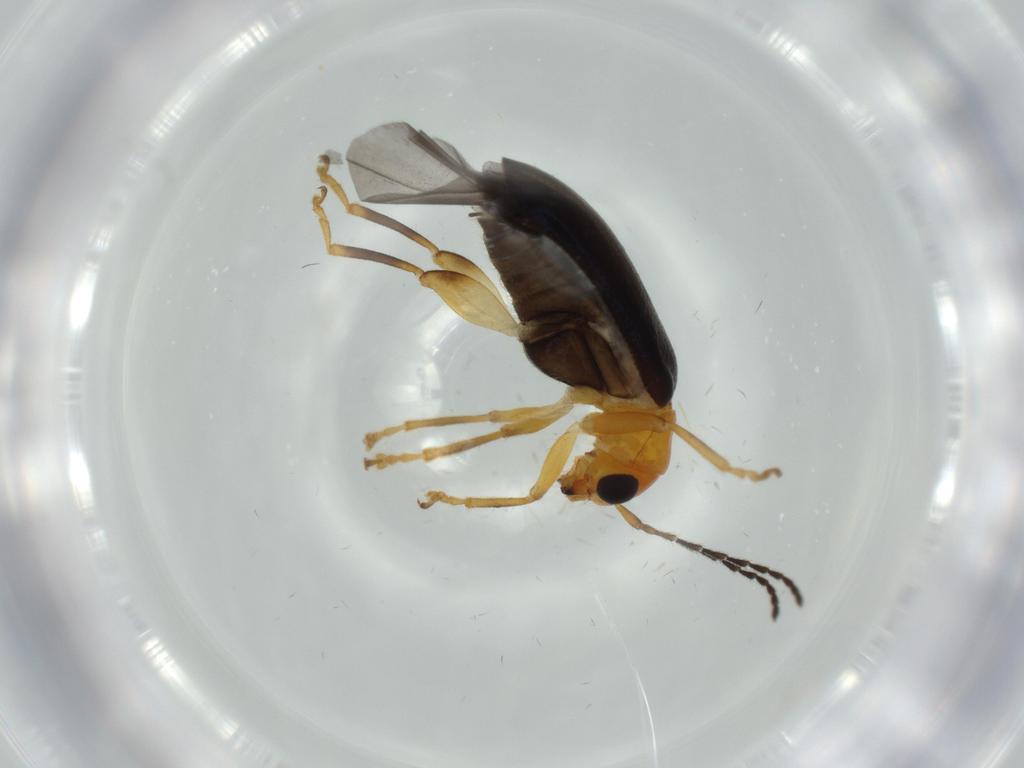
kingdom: Animalia
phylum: Arthropoda
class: Insecta
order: Coleoptera
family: Chrysomelidae
